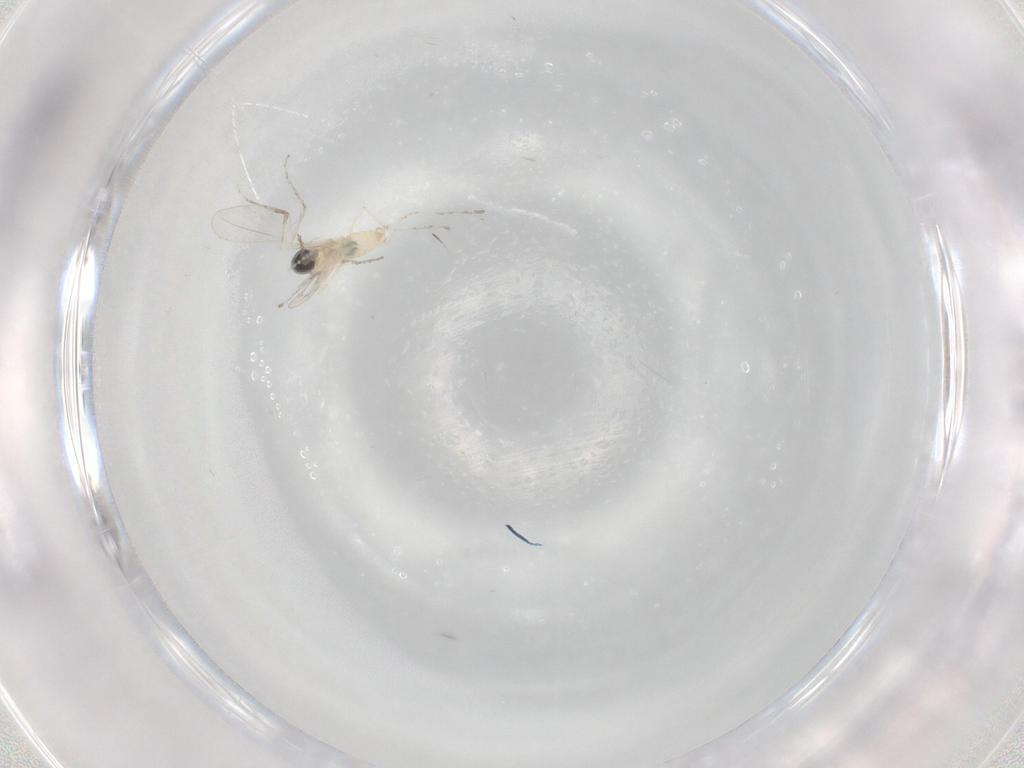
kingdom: Animalia
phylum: Arthropoda
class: Insecta
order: Diptera
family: Cecidomyiidae
